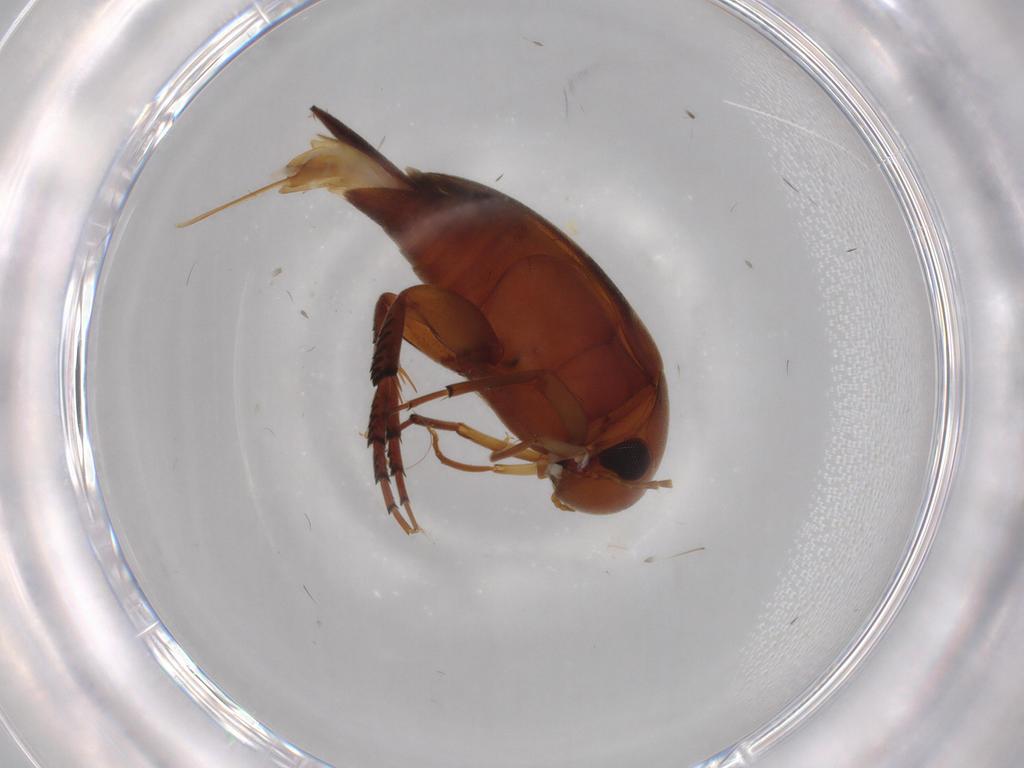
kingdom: Animalia
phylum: Arthropoda
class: Insecta
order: Coleoptera
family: Mordellidae
